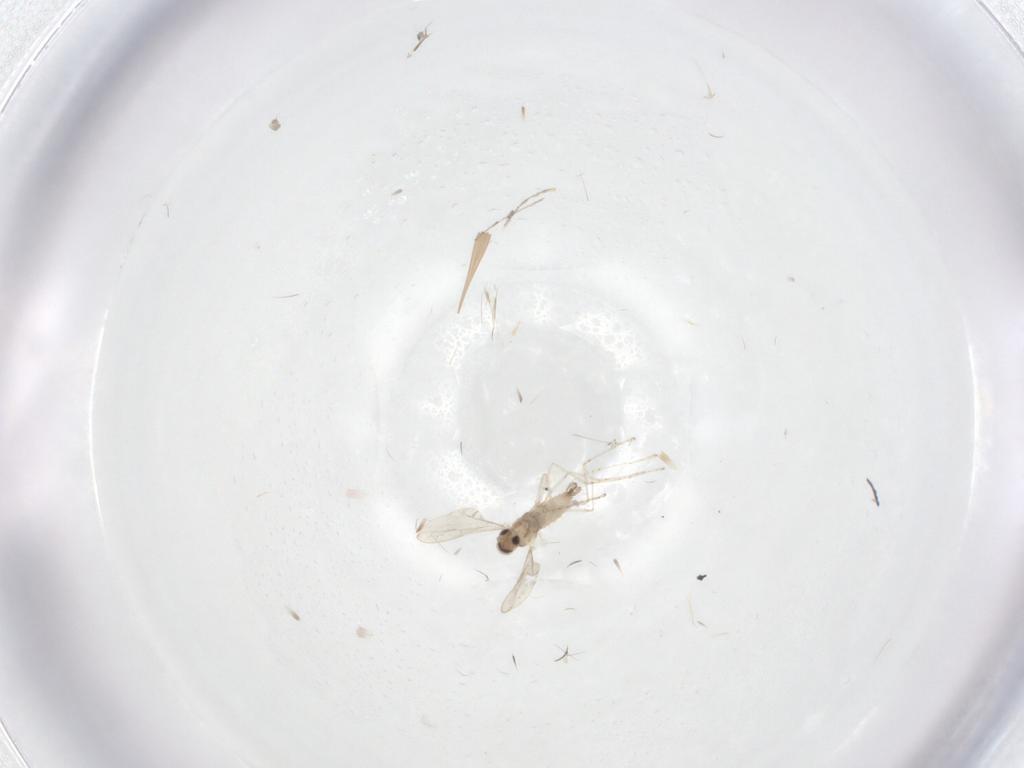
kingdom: Animalia
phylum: Arthropoda
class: Insecta
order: Diptera
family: Cecidomyiidae
